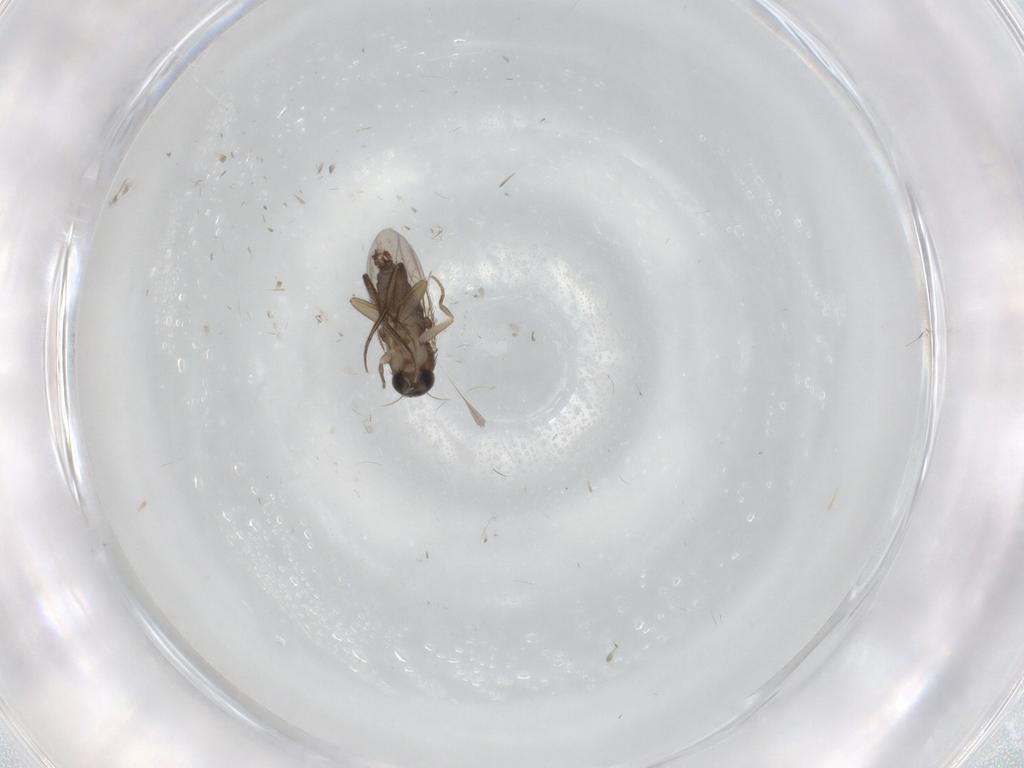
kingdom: Animalia
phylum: Arthropoda
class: Insecta
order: Diptera
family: Phoridae
